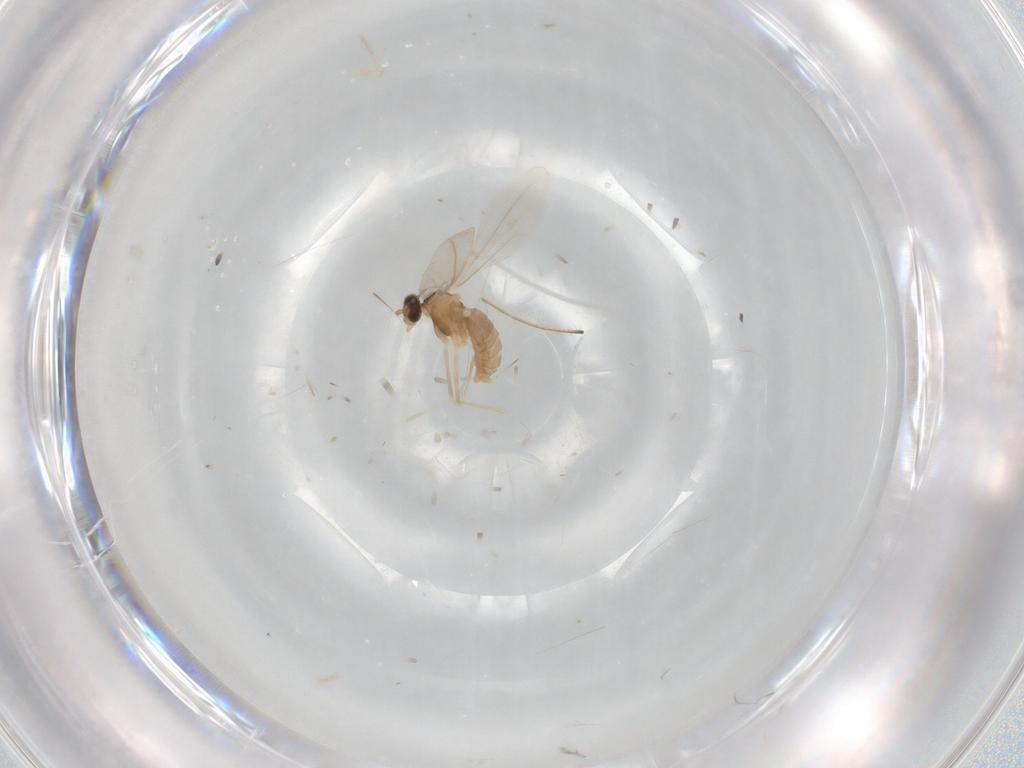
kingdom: Animalia
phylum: Arthropoda
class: Insecta
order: Diptera
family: Cecidomyiidae
